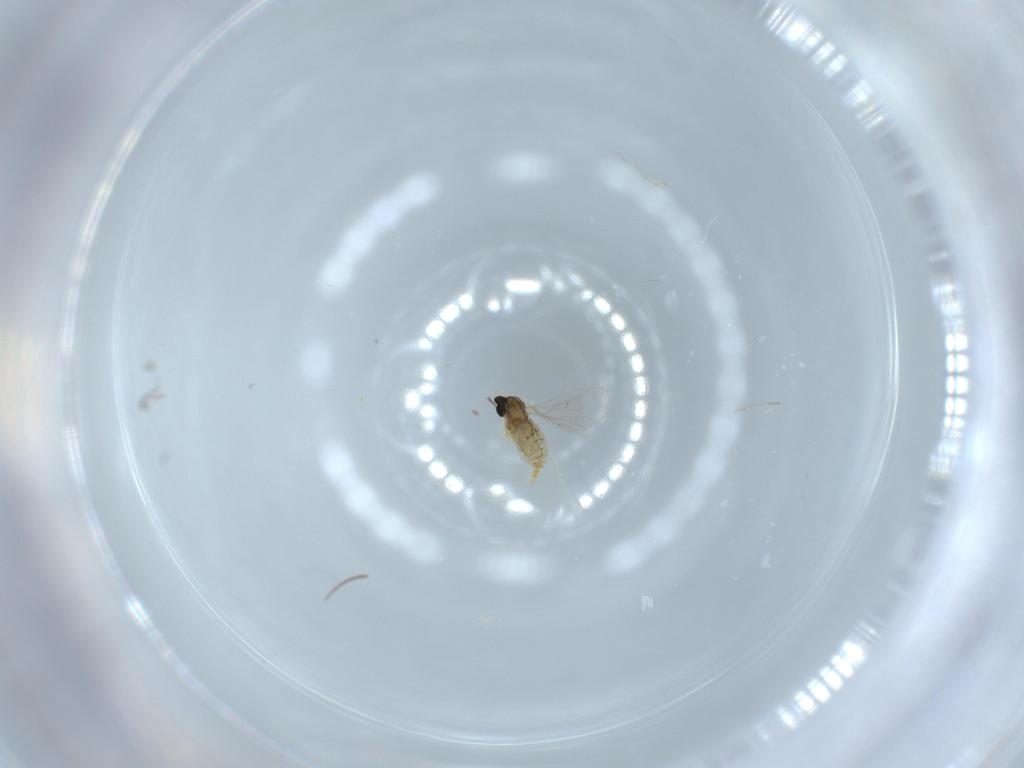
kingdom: Animalia
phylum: Arthropoda
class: Insecta
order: Diptera
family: Cecidomyiidae
